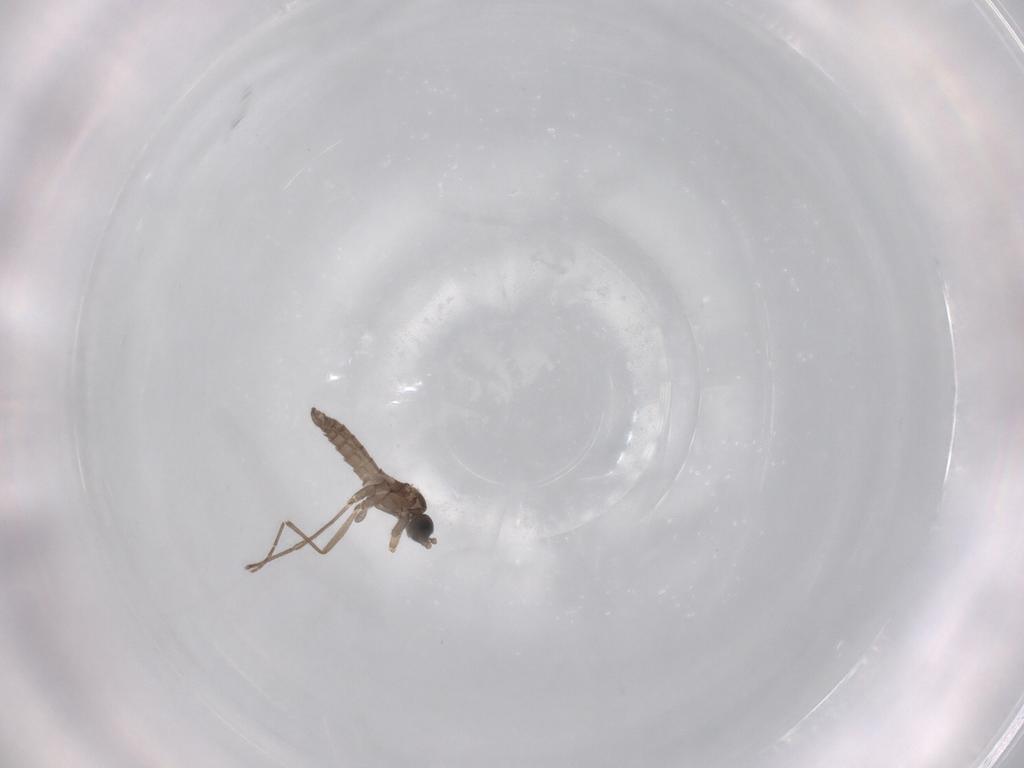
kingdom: Animalia
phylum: Arthropoda
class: Insecta
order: Diptera
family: Sciaridae
